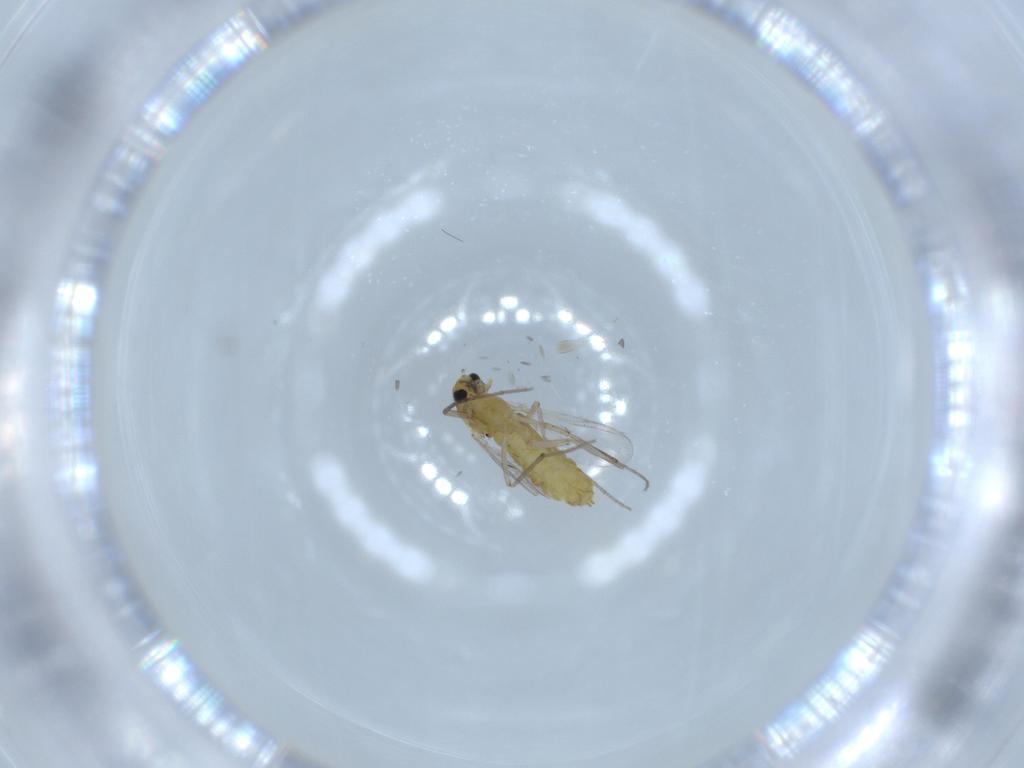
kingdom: Animalia
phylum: Arthropoda
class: Insecta
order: Diptera
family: Chironomidae
